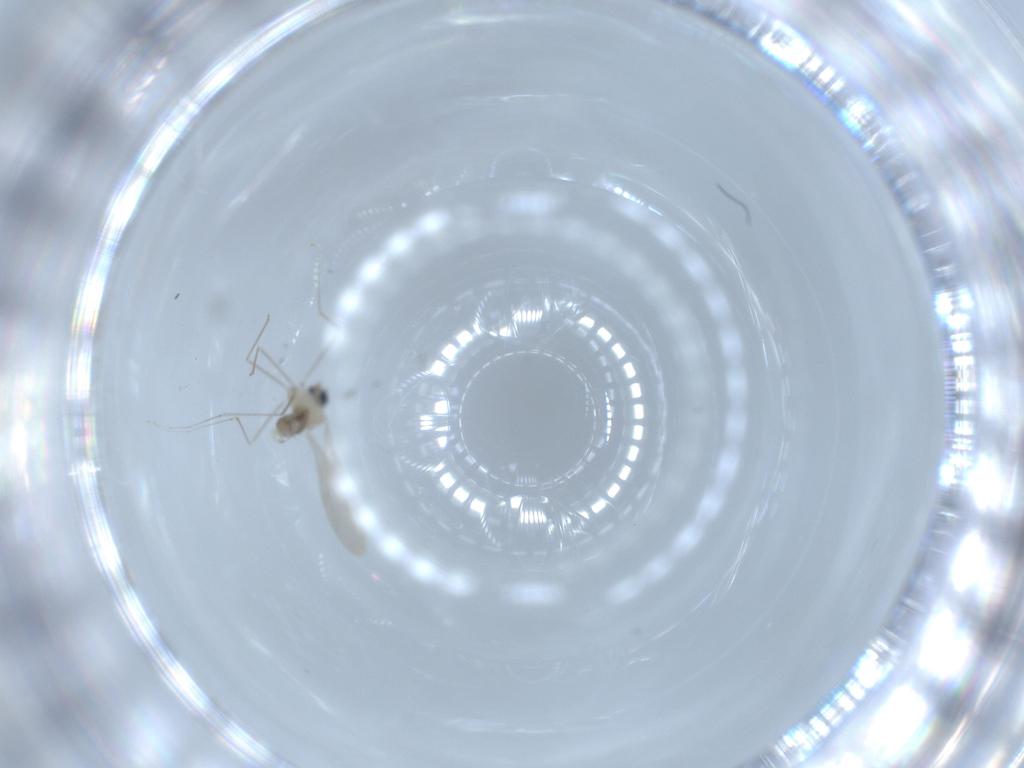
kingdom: Animalia
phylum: Arthropoda
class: Insecta
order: Diptera
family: Cecidomyiidae
